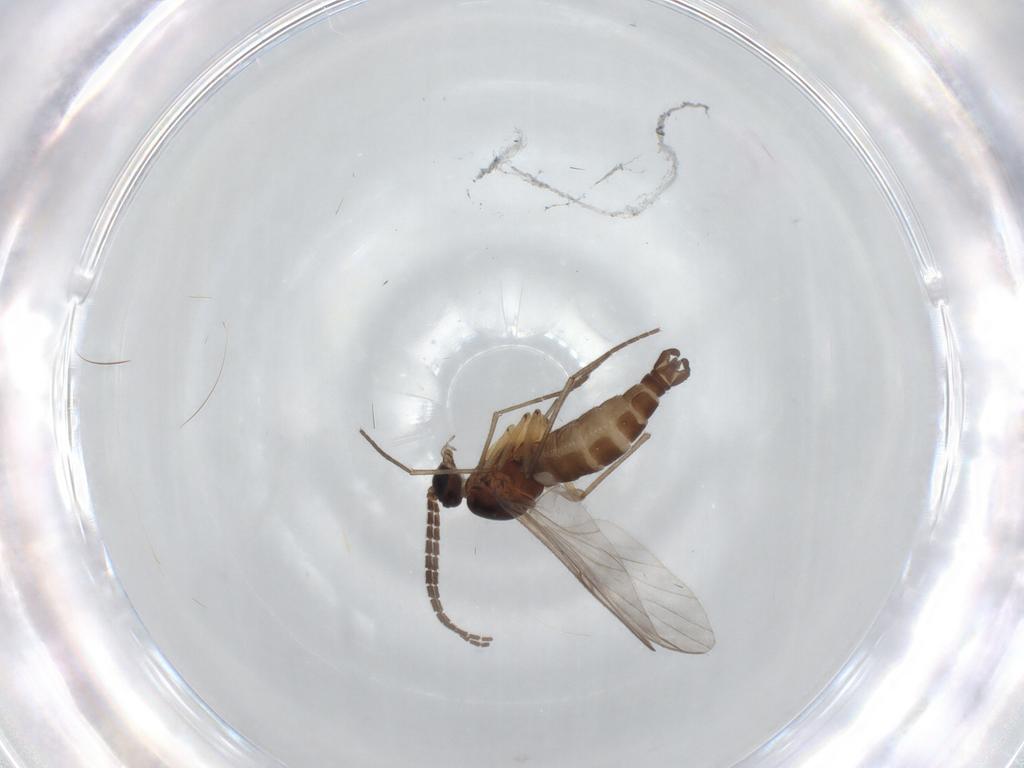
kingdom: Animalia
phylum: Arthropoda
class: Insecta
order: Diptera
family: Sciaridae
